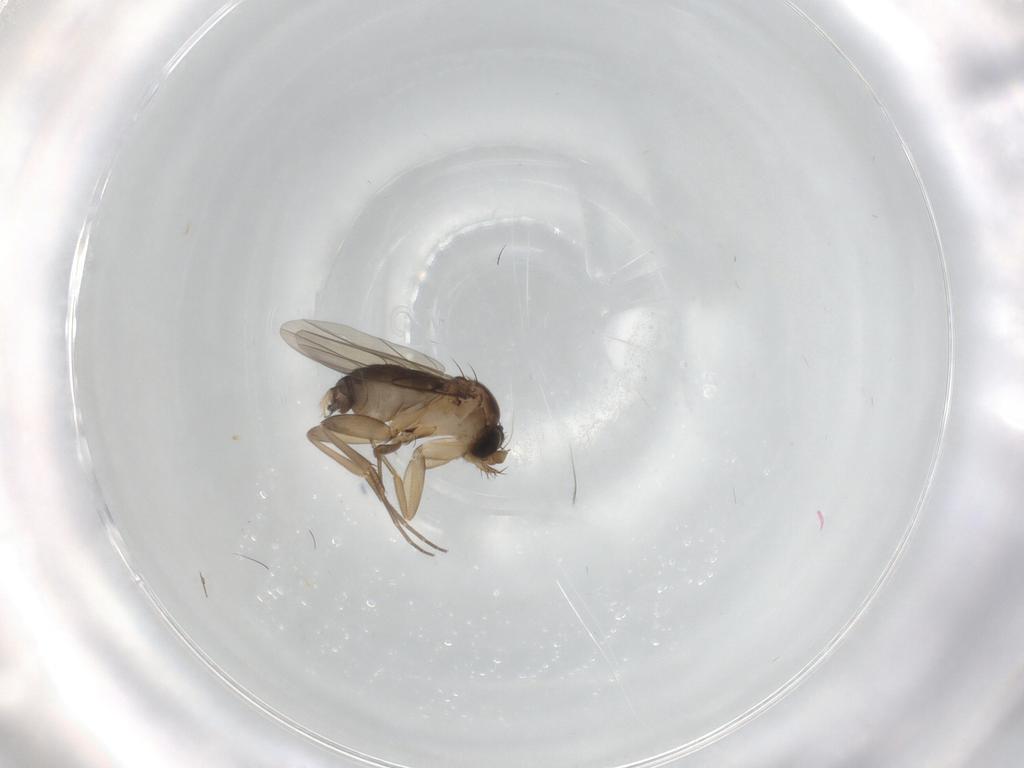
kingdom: Animalia
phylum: Arthropoda
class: Insecta
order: Diptera
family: Phoridae
